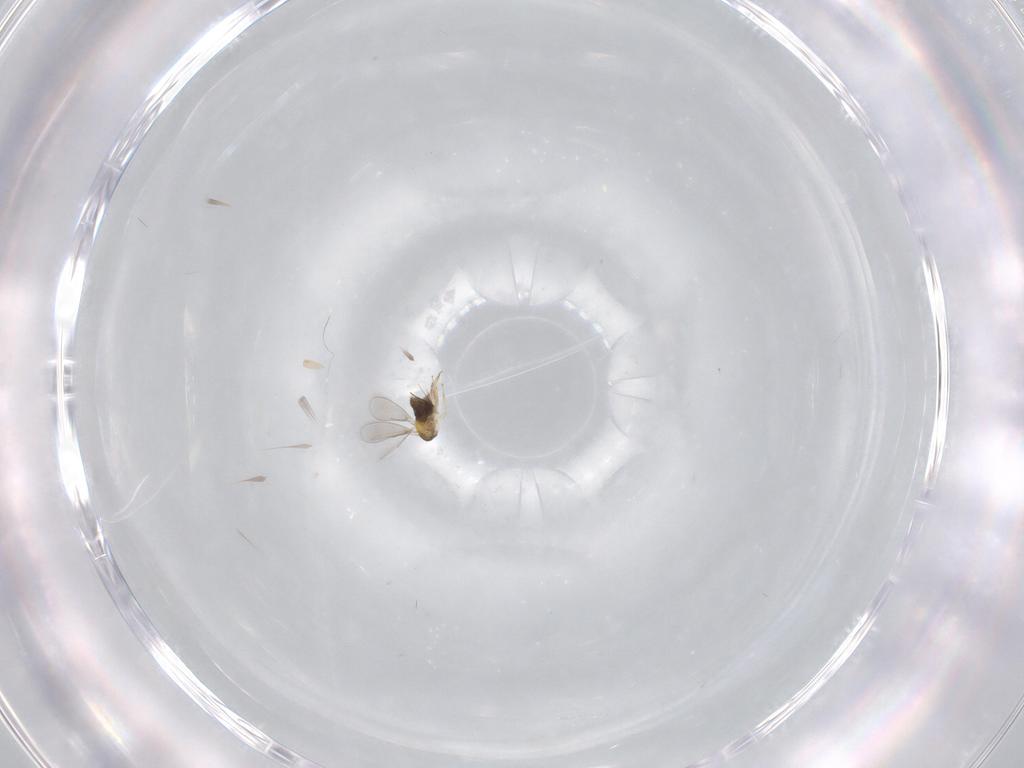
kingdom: Animalia
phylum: Arthropoda
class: Insecta
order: Hymenoptera
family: Aphelinidae
